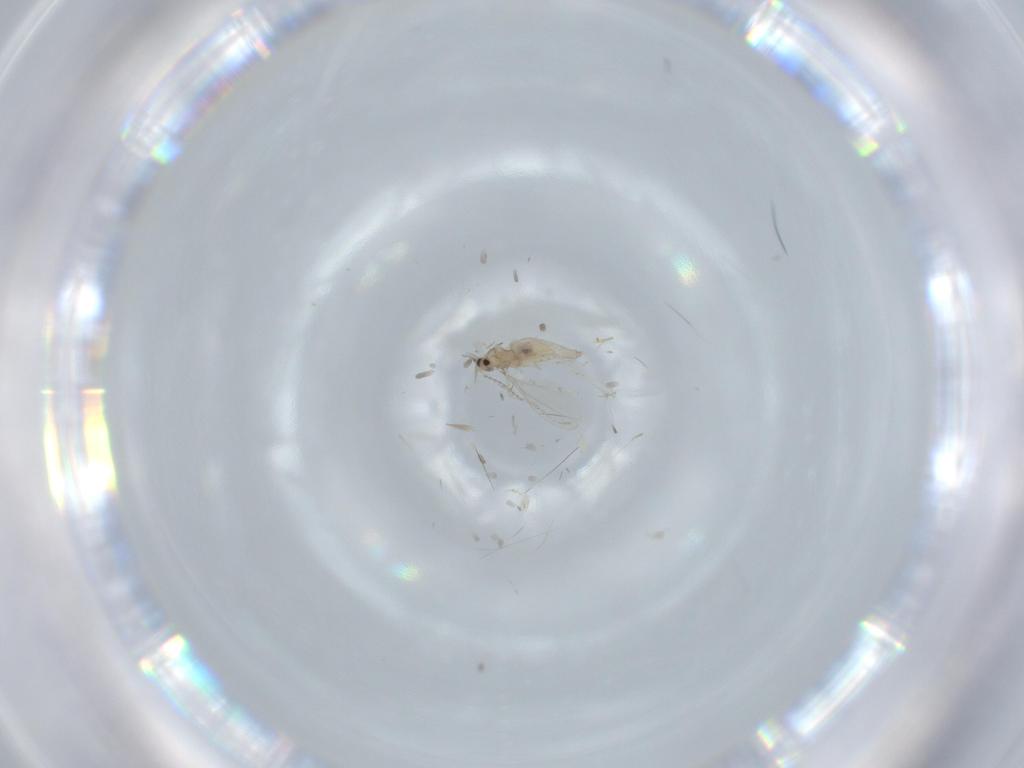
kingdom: Animalia
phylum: Arthropoda
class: Insecta
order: Diptera
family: Cecidomyiidae
